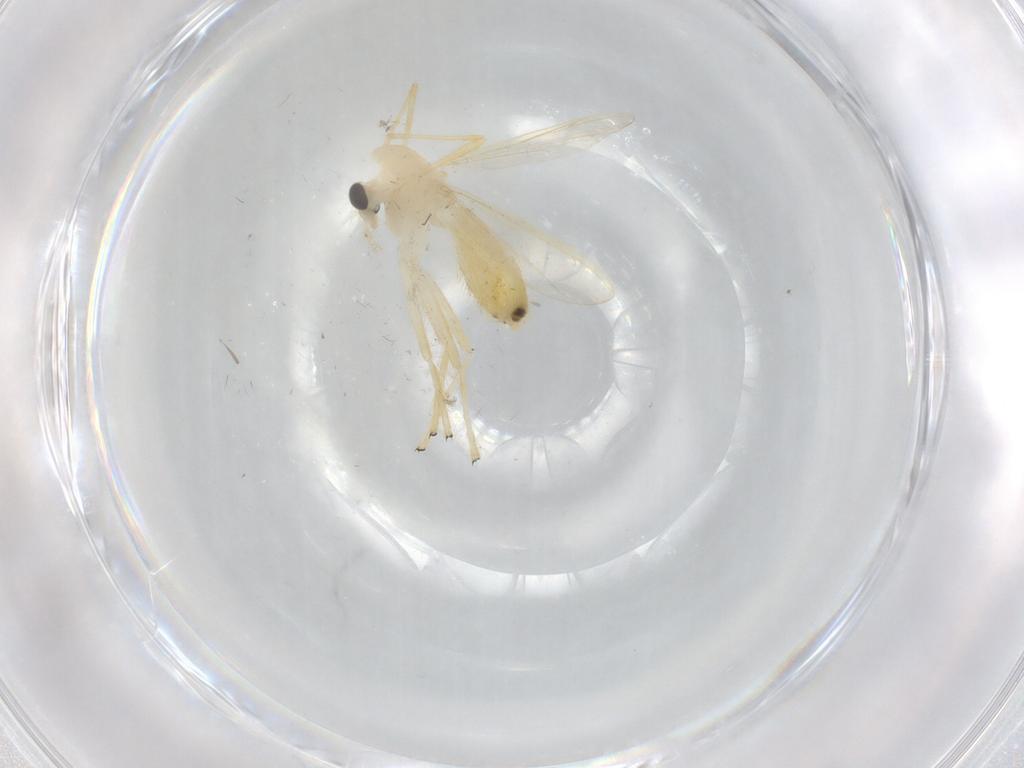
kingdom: Animalia
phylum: Arthropoda
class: Insecta
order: Diptera
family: Chironomidae
